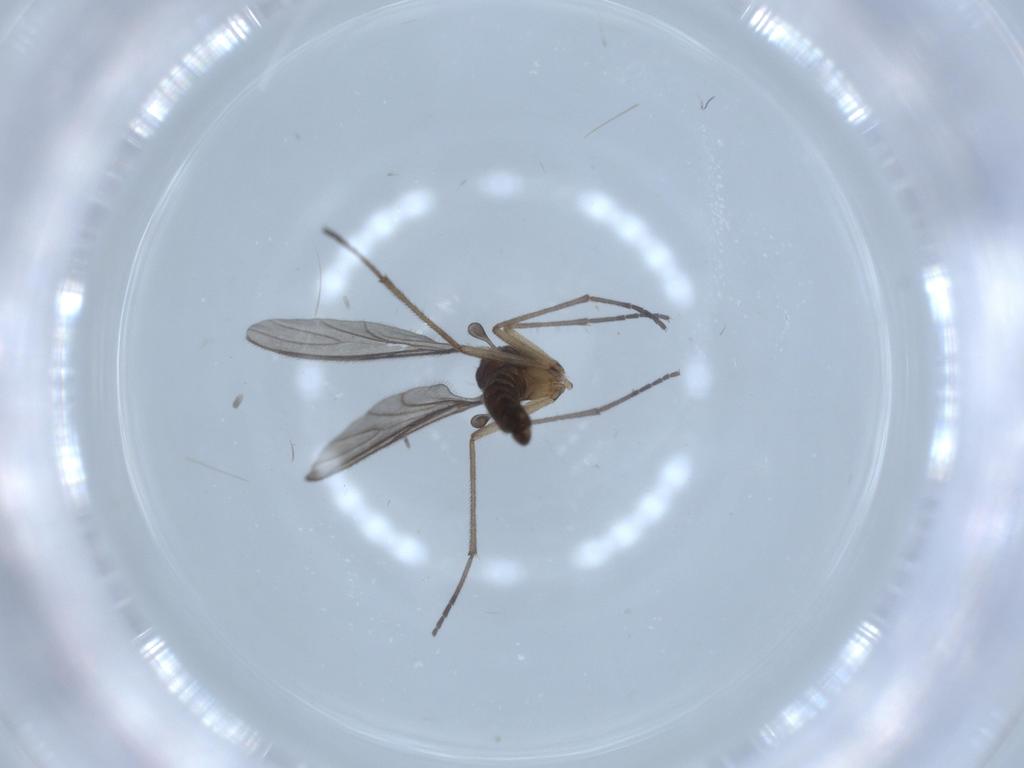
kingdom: Animalia
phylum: Arthropoda
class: Insecta
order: Diptera
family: Sciaridae
